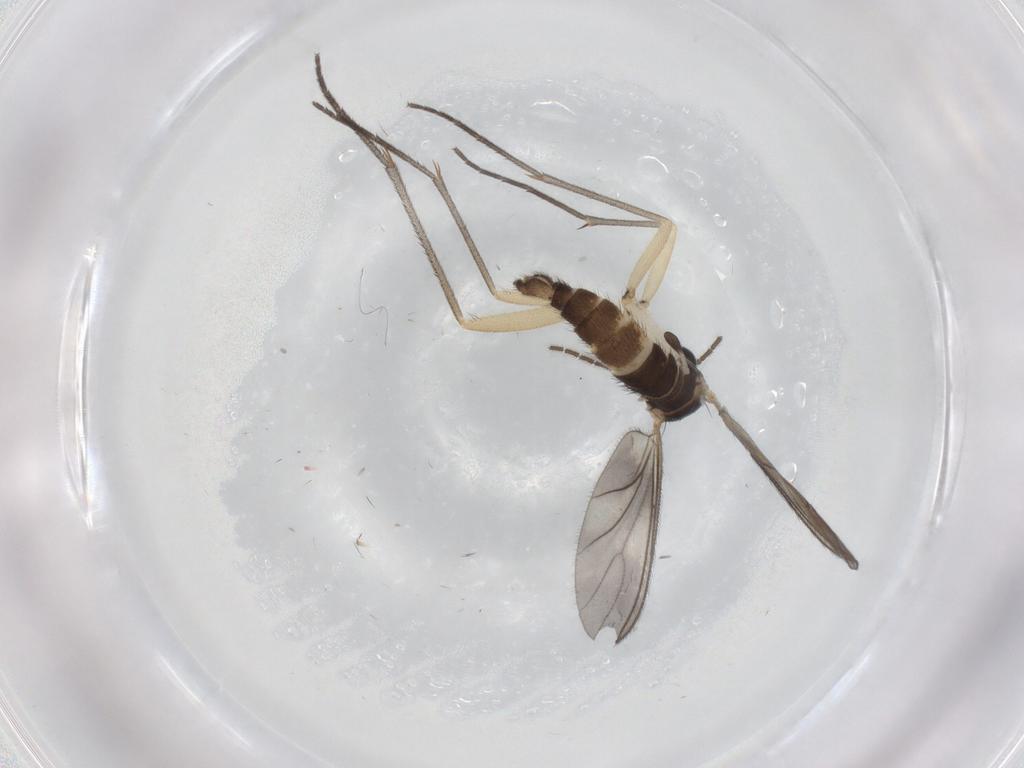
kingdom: Animalia
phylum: Arthropoda
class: Insecta
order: Diptera
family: Sciaridae
